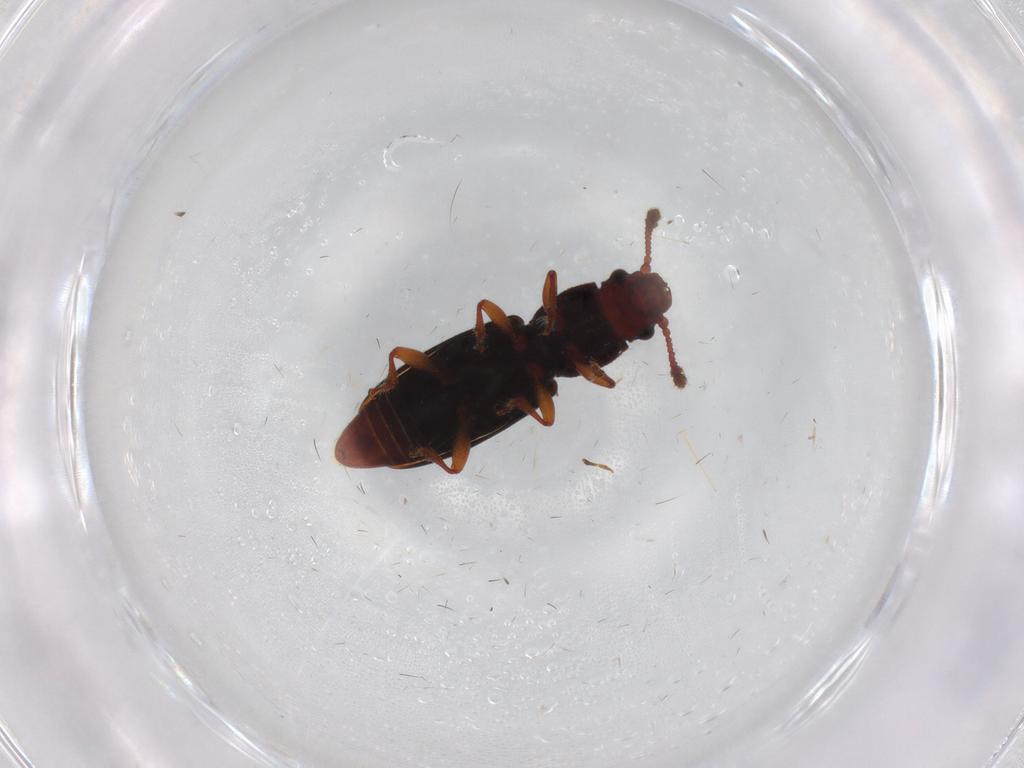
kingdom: Animalia
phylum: Arthropoda
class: Insecta
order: Coleoptera
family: Monotomidae
